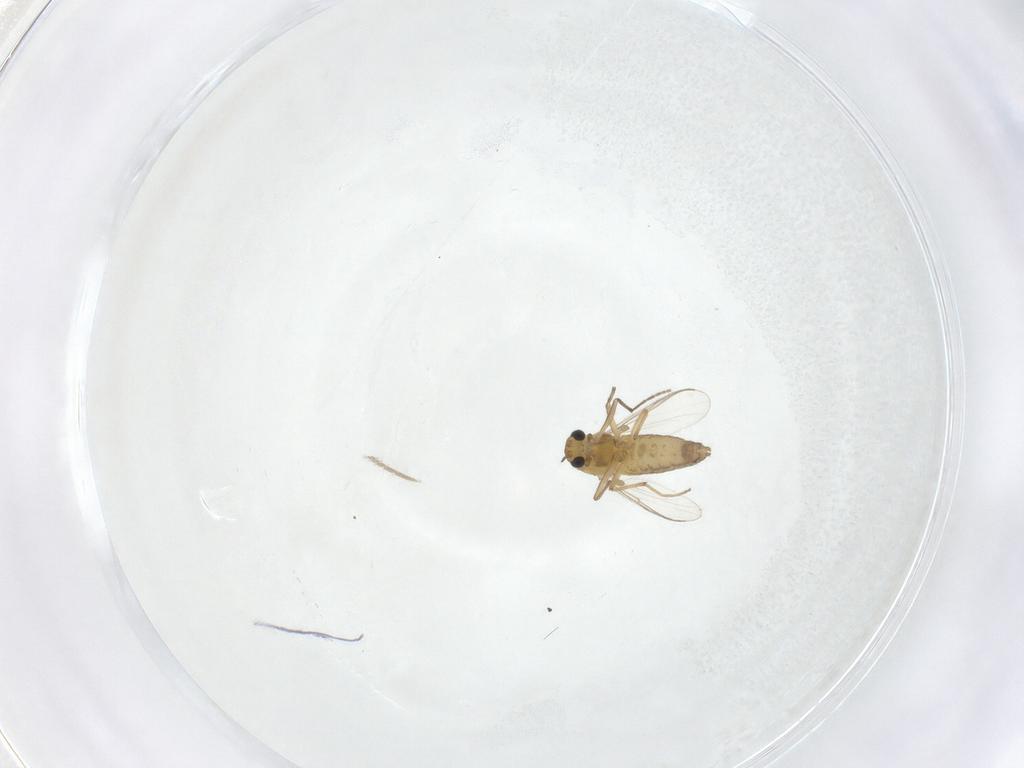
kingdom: Animalia
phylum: Arthropoda
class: Insecta
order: Diptera
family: Chironomidae
